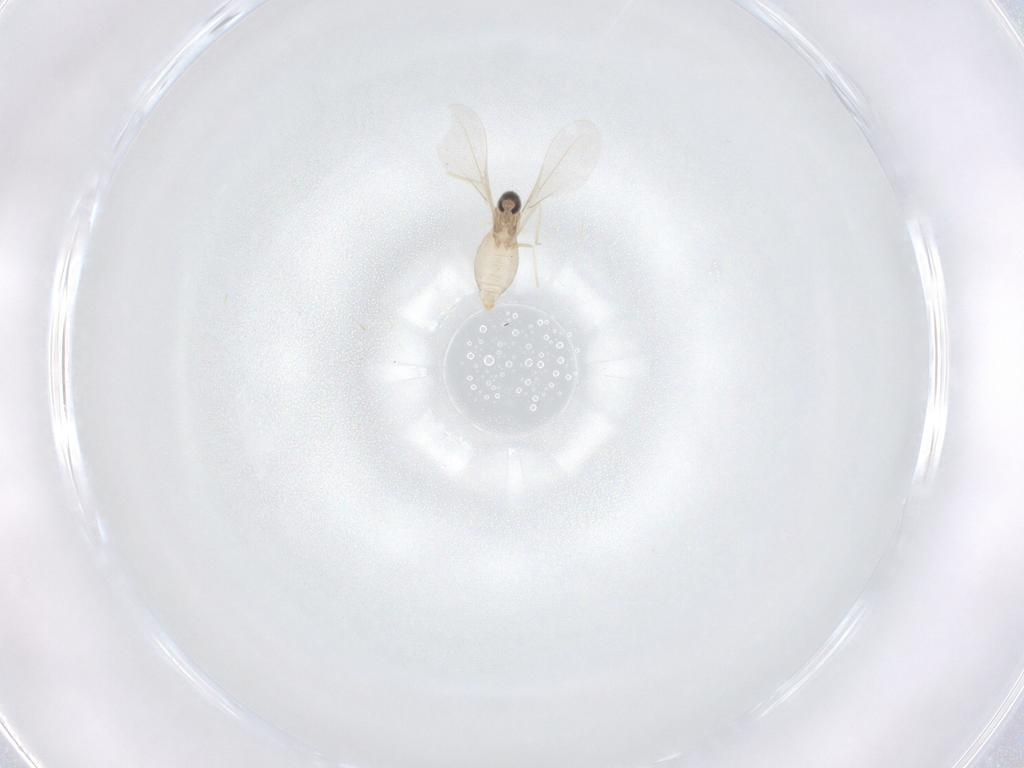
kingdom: Animalia
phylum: Arthropoda
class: Insecta
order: Diptera
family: Cecidomyiidae
